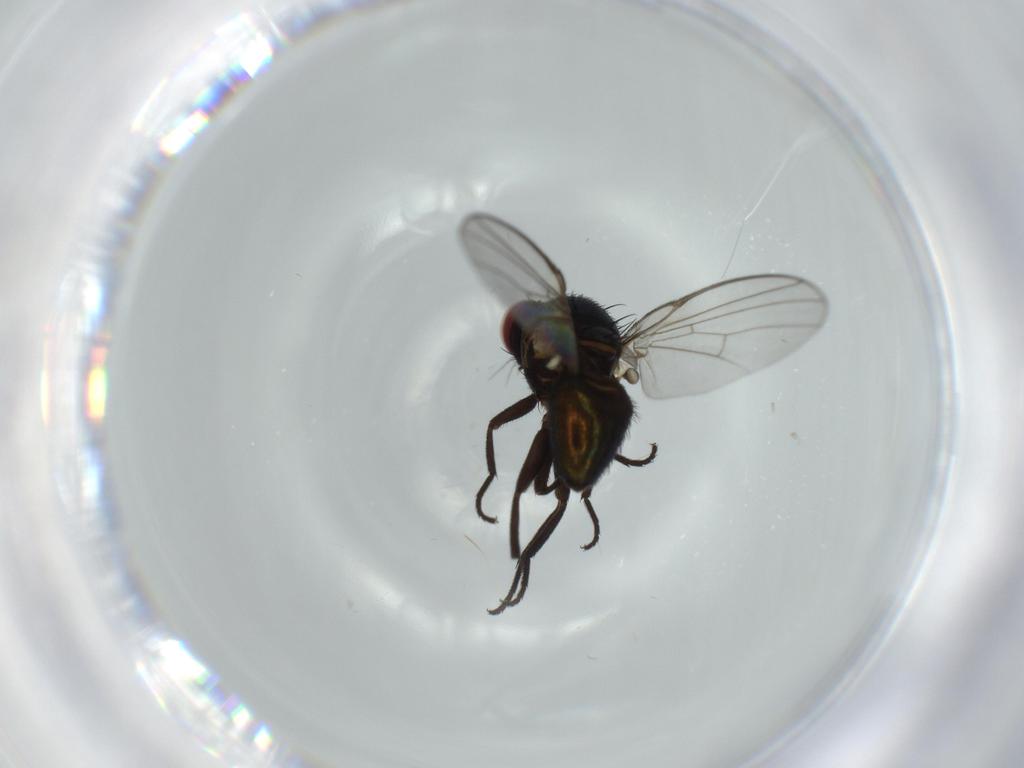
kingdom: Animalia
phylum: Arthropoda
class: Insecta
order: Diptera
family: Agromyzidae
